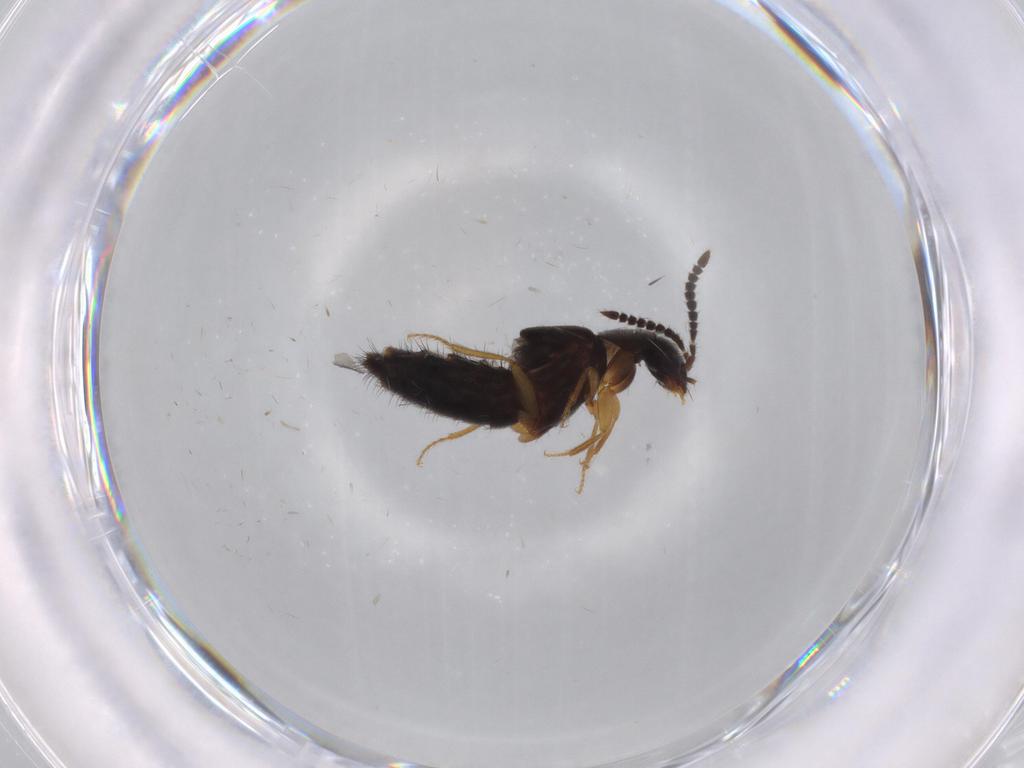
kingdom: Animalia
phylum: Arthropoda
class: Insecta
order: Coleoptera
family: Staphylinidae
